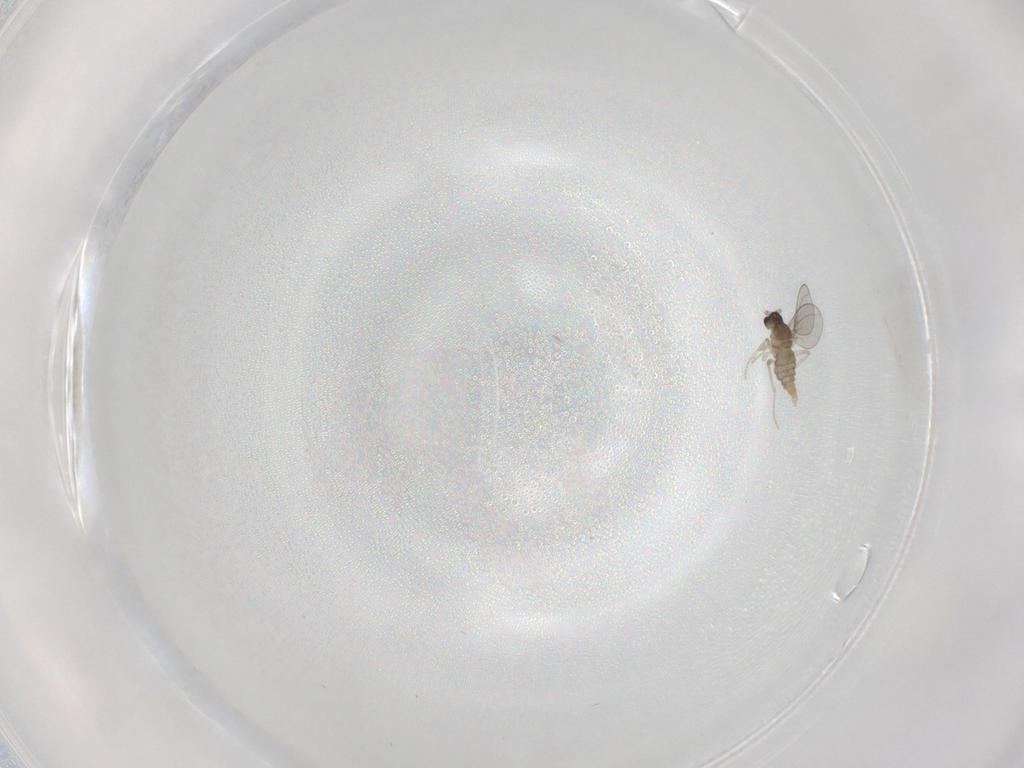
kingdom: Animalia
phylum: Arthropoda
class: Insecta
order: Diptera
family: Cecidomyiidae
